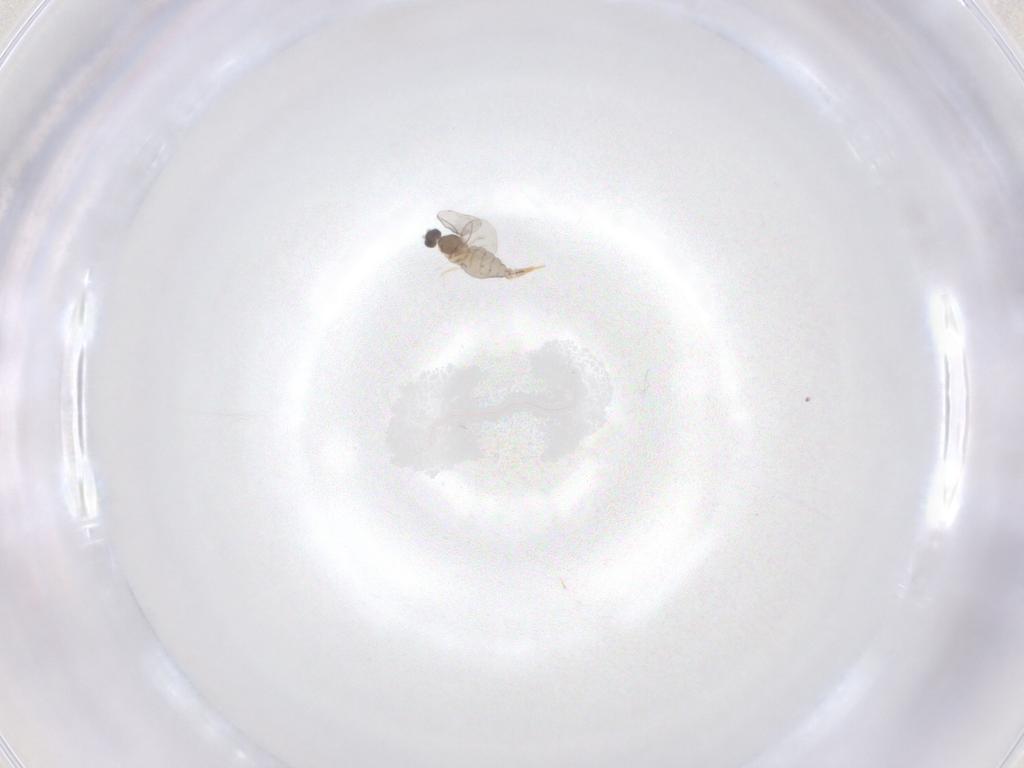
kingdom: Animalia
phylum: Arthropoda
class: Insecta
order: Diptera
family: Cecidomyiidae
